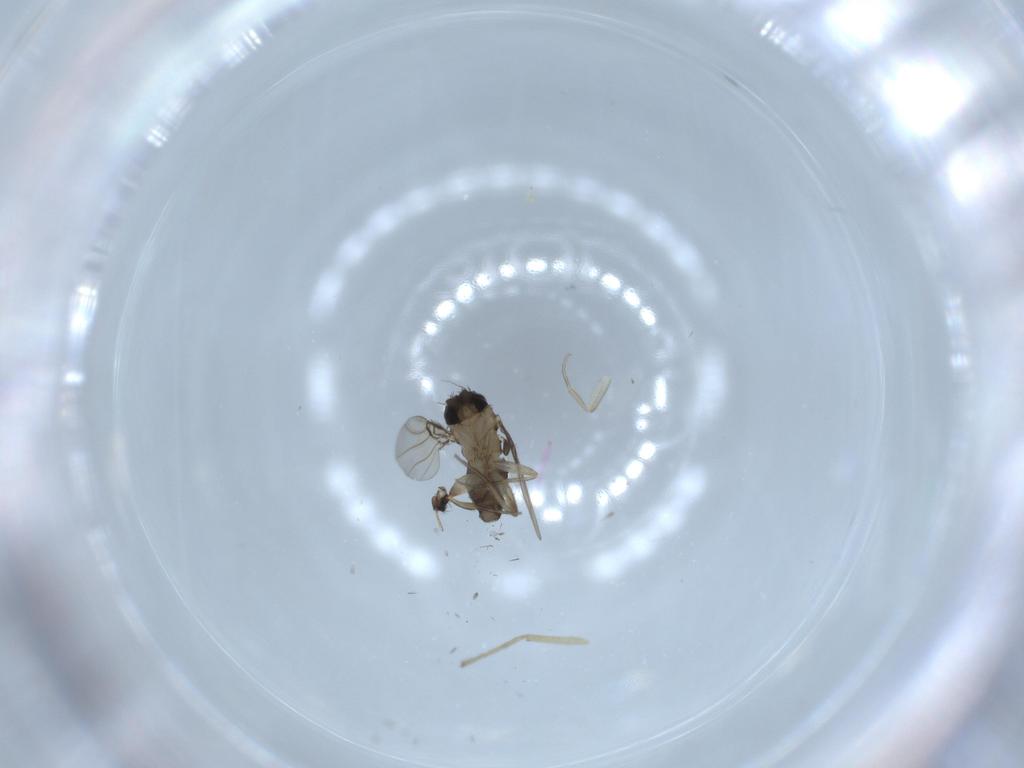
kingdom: Animalia
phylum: Arthropoda
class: Insecta
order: Diptera
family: Phoridae
